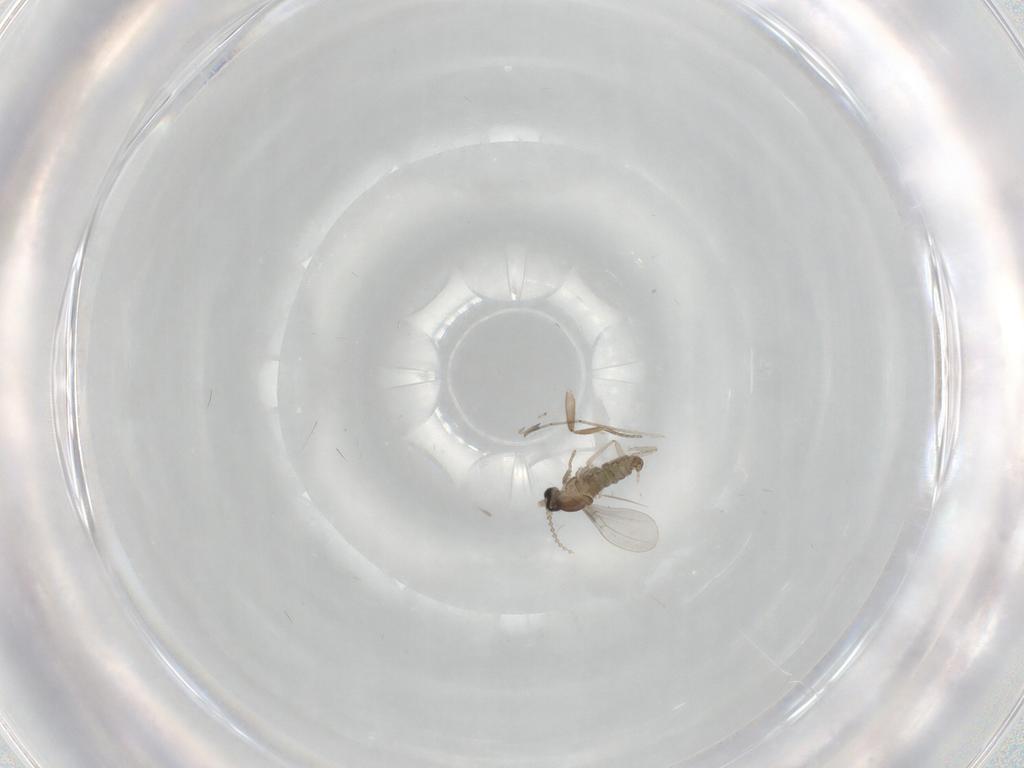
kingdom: Animalia
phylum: Arthropoda
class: Insecta
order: Diptera
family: Cecidomyiidae
